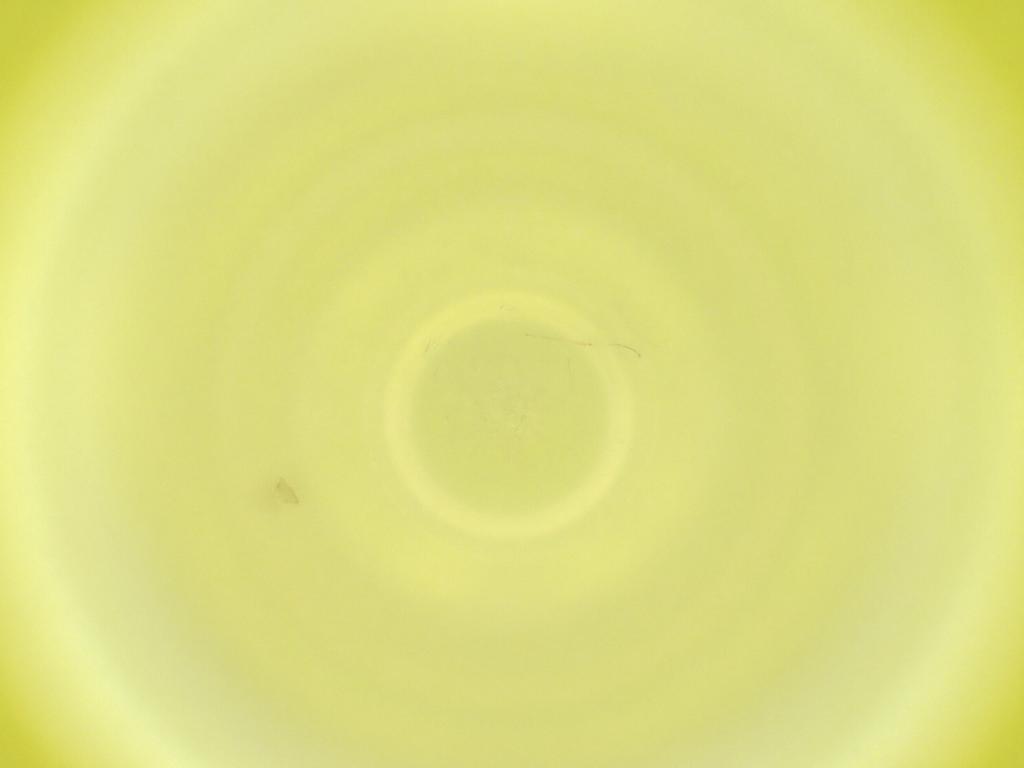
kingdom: Animalia
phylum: Arthropoda
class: Insecta
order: Diptera
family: Cecidomyiidae
